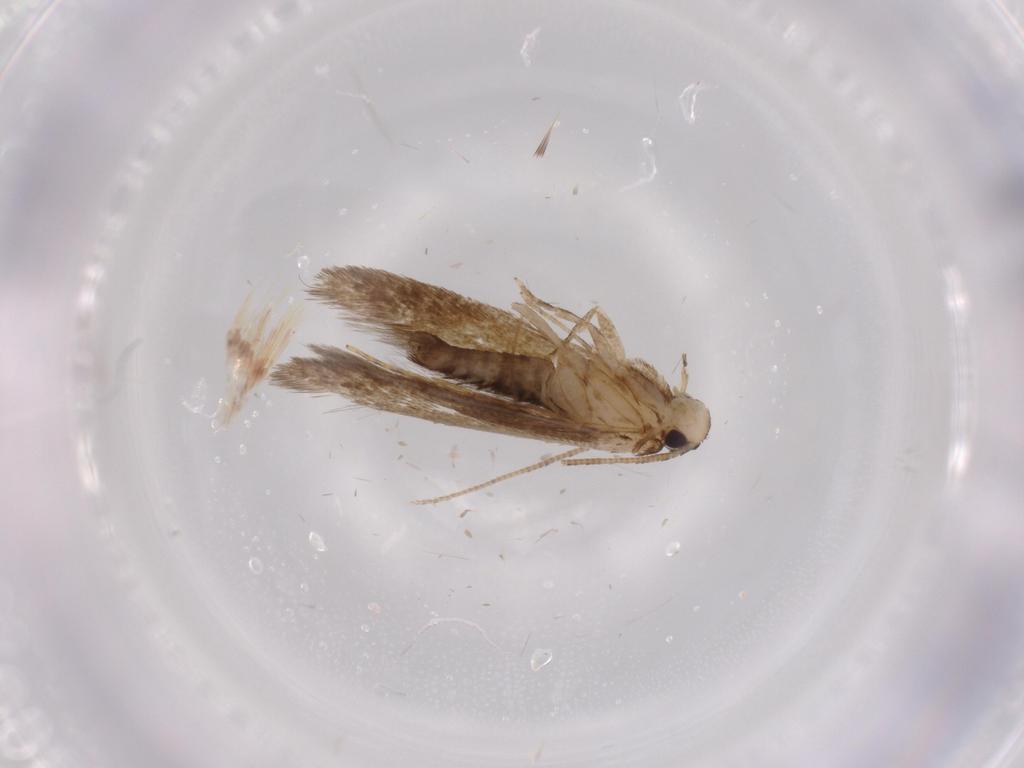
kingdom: Animalia
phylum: Arthropoda
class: Insecta
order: Lepidoptera
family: Tineidae
